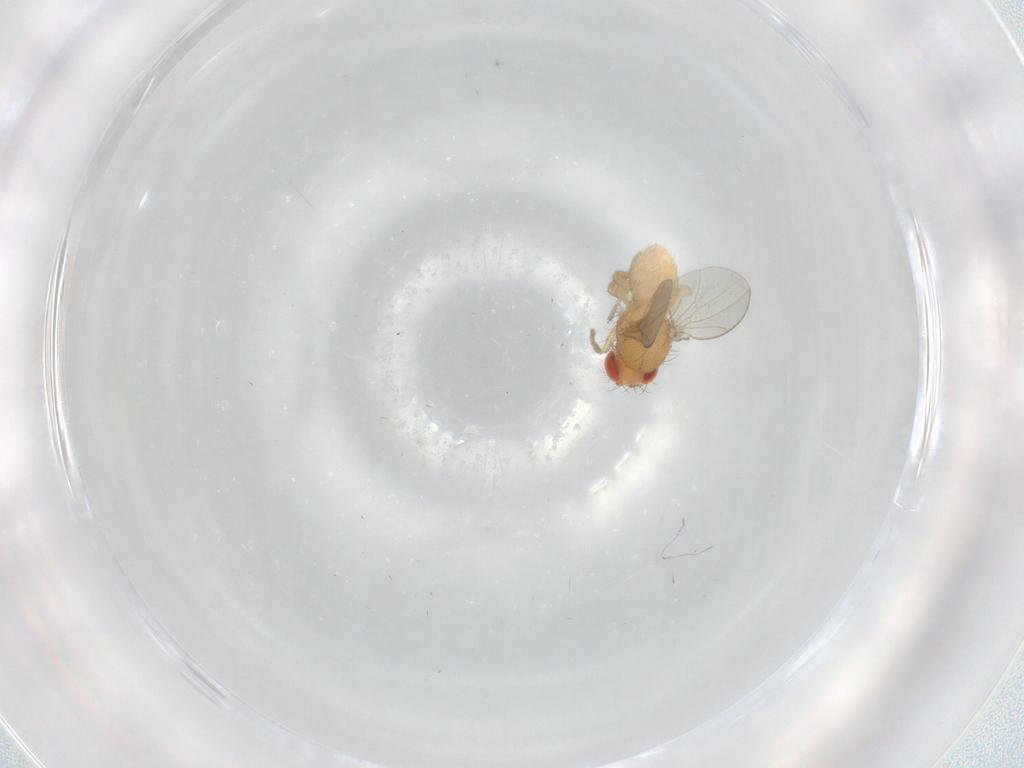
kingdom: Animalia
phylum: Arthropoda
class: Insecta
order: Diptera
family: Drosophilidae
